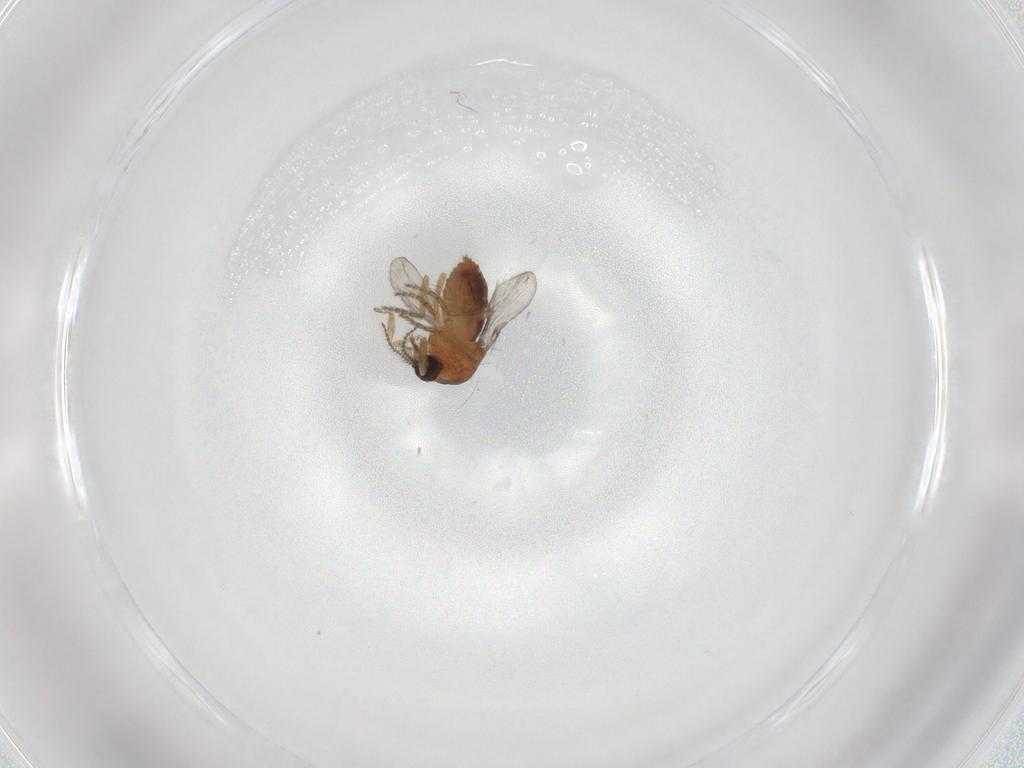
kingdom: Animalia
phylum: Arthropoda
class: Insecta
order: Diptera
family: Ceratopogonidae
